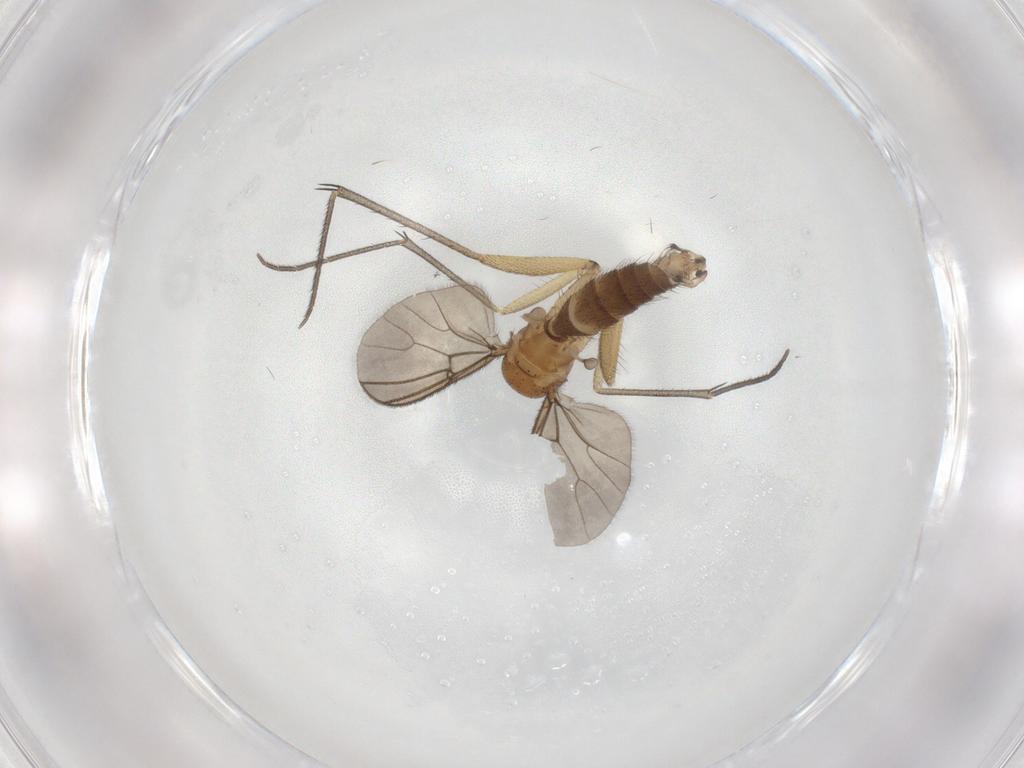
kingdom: Animalia
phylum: Arthropoda
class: Insecta
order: Diptera
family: Mycetophilidae
